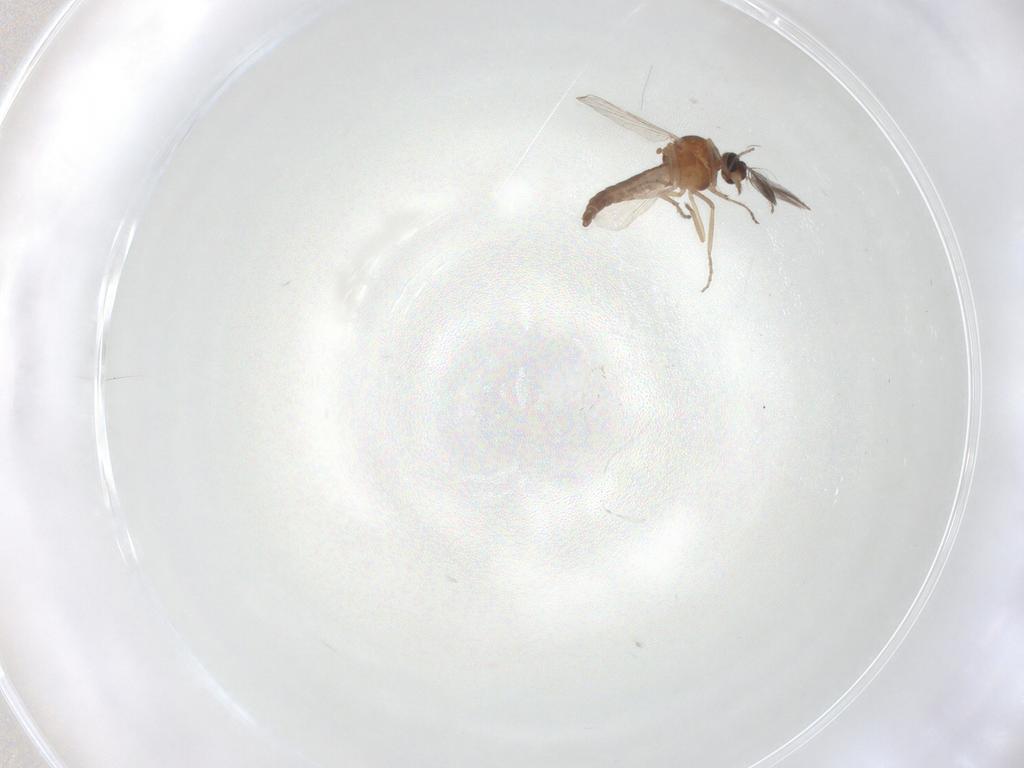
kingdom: Animalia
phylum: Arthropoda
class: Insecta
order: Diptera
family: Ceratopogonidae
